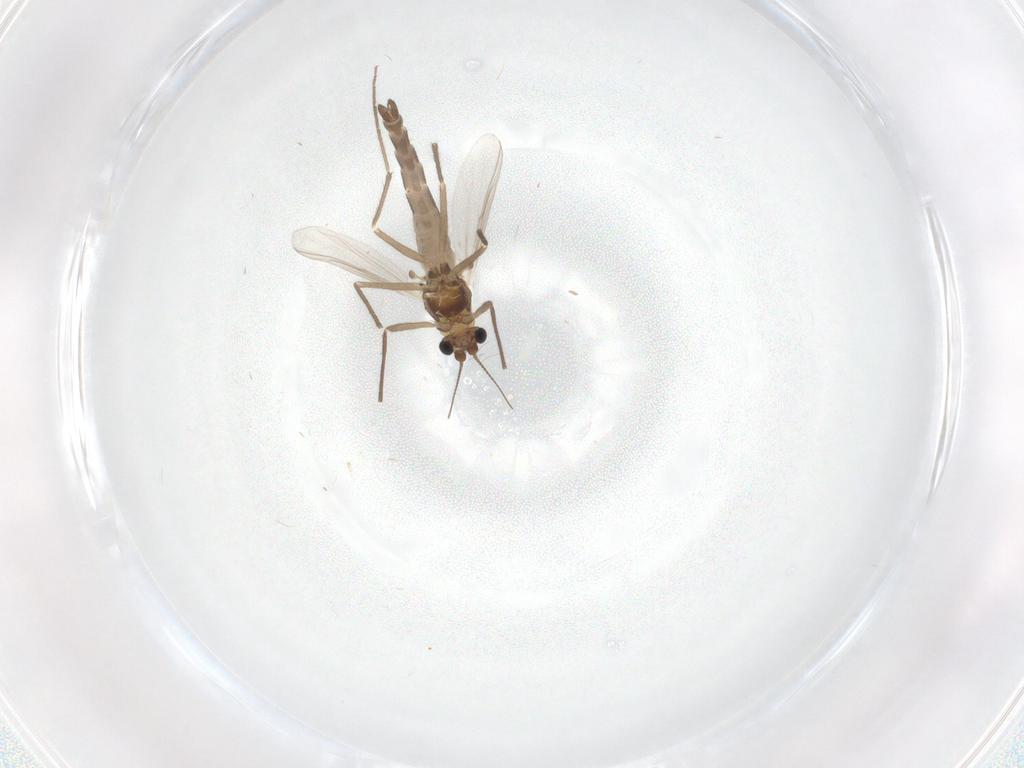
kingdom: Animalia
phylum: Arthropoda
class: Insecta
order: Diptera
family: Chironomidae
